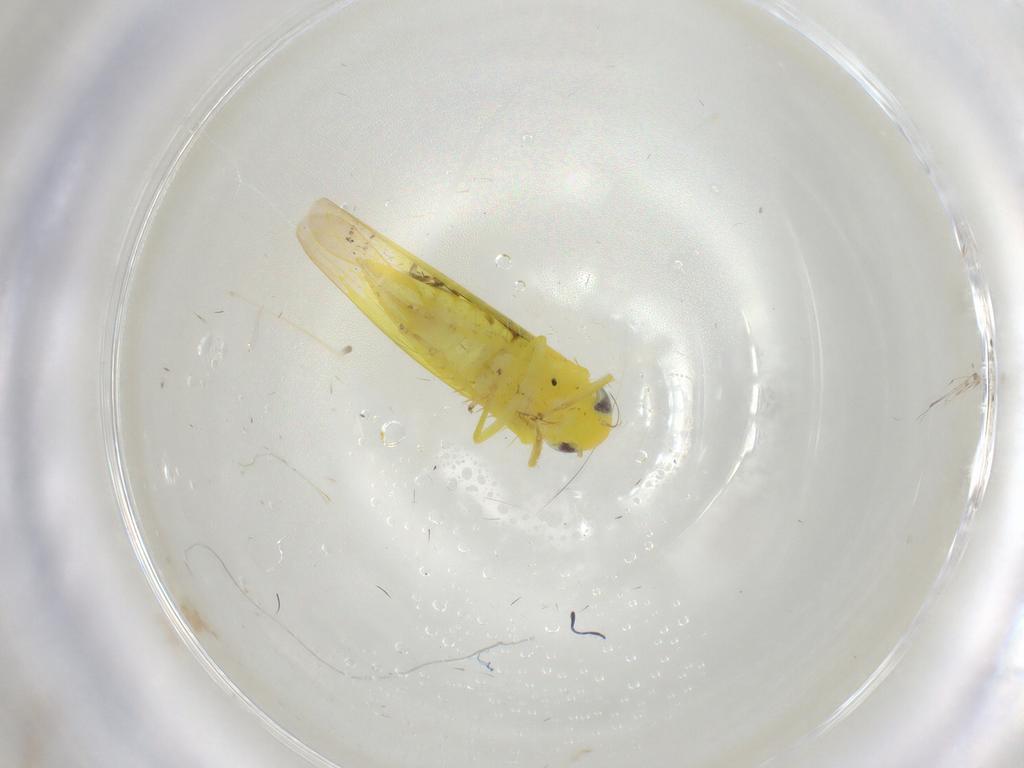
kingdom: Animalia
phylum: Arthropoda
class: Insecta
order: Hemiptera
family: Cicadellidae
